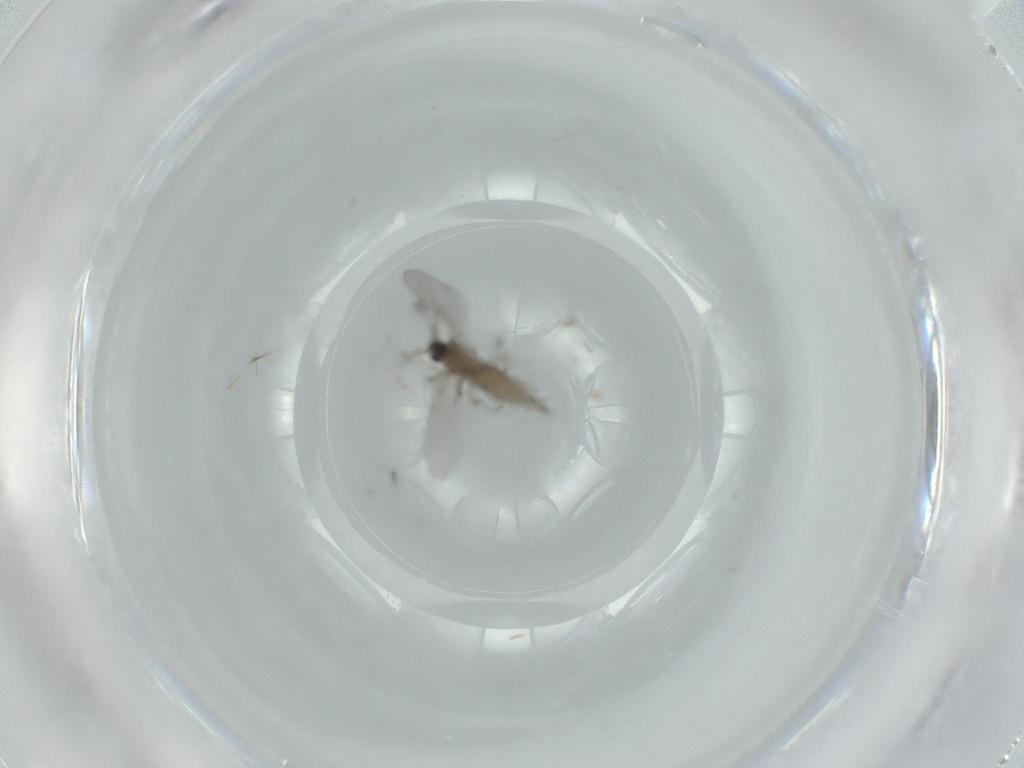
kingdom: Animalia
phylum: Arthropoda
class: Insecta
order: Diptera
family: Cecidomyiidae
